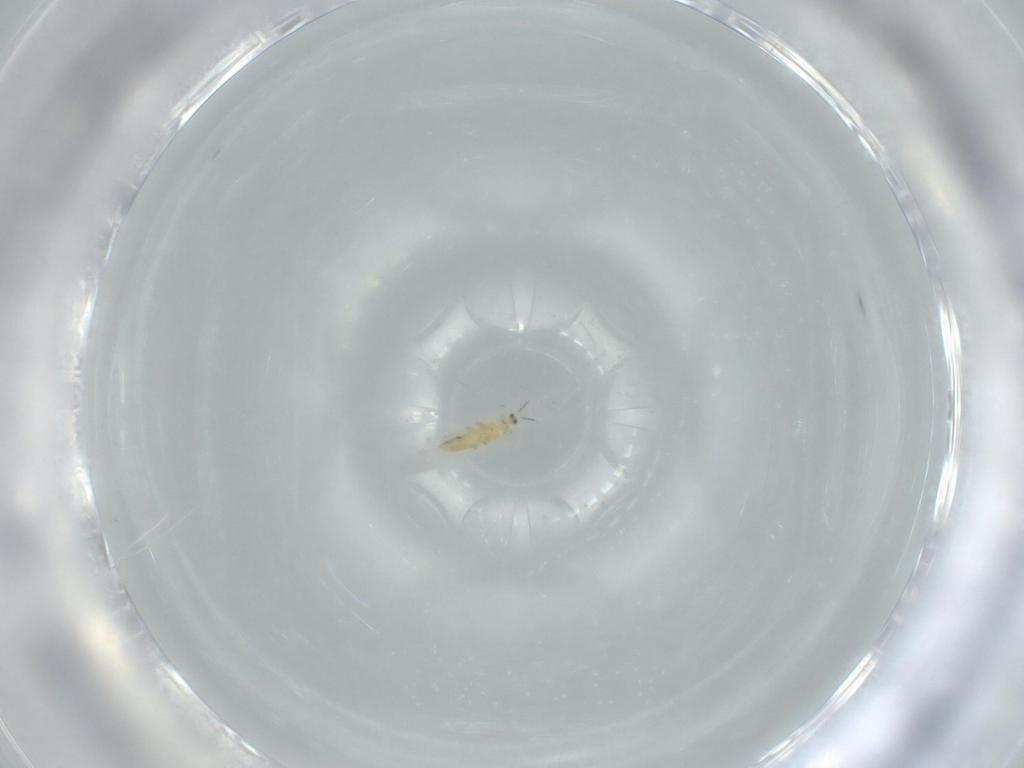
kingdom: Animalia
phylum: Arthropoda
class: Insecta
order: Thysanoptera
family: Thripidae
